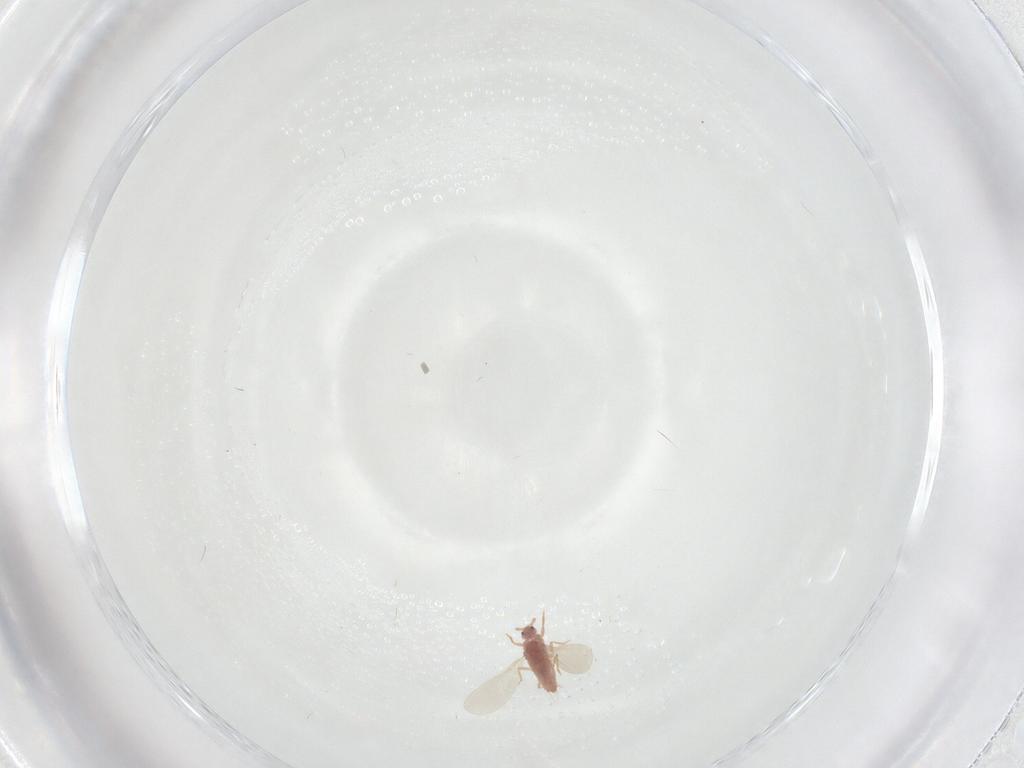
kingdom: Animalia
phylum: Arthropoda
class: Insecta
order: Hemiptera
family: Pseudococcidae
